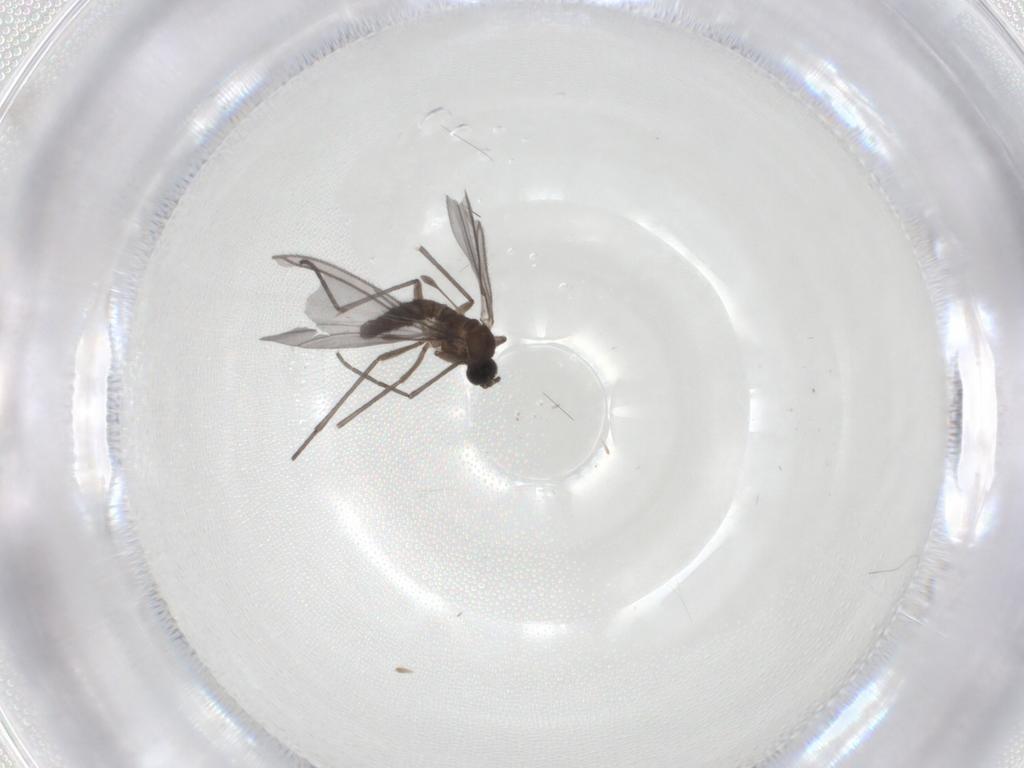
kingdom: Animalia
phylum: Arthropoda
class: Insecta
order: Diptera
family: Sciaridae
